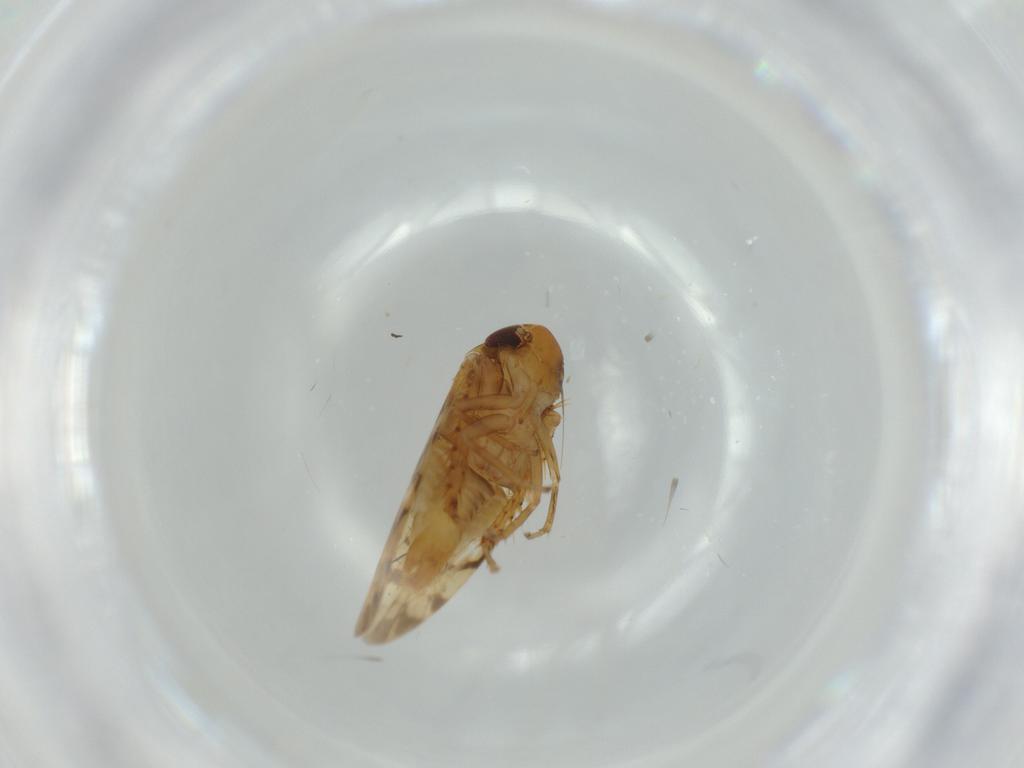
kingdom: Animalia
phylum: Arthropoda
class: Insecta
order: Hemiptera
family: Cicadellidae
